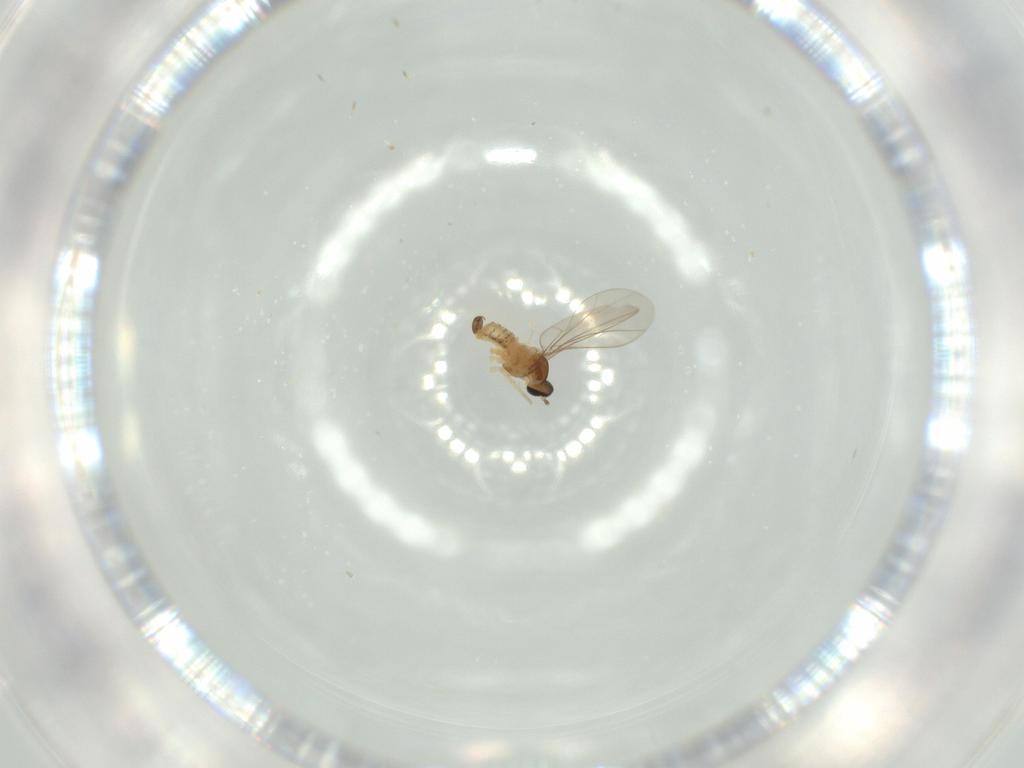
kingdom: Animalia
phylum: Arthropoda
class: Insecta
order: Diptera
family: Cecidomyiidae
